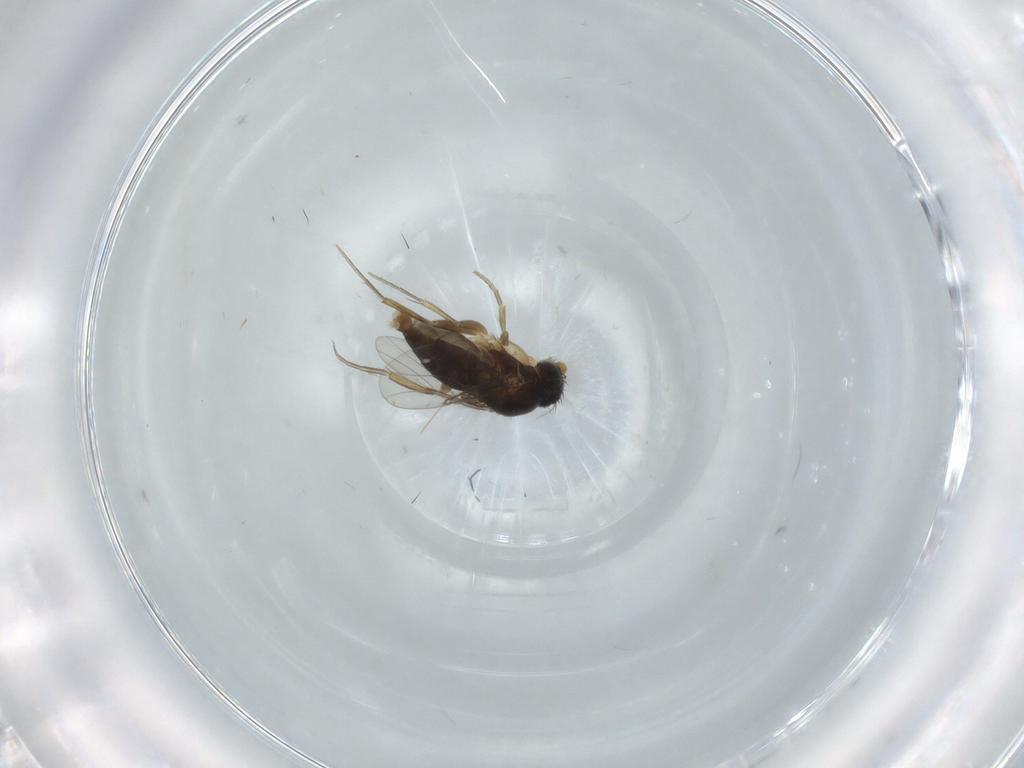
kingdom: Animalia
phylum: Arthropoda
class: Insecta
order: Diptera
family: Phoridae
